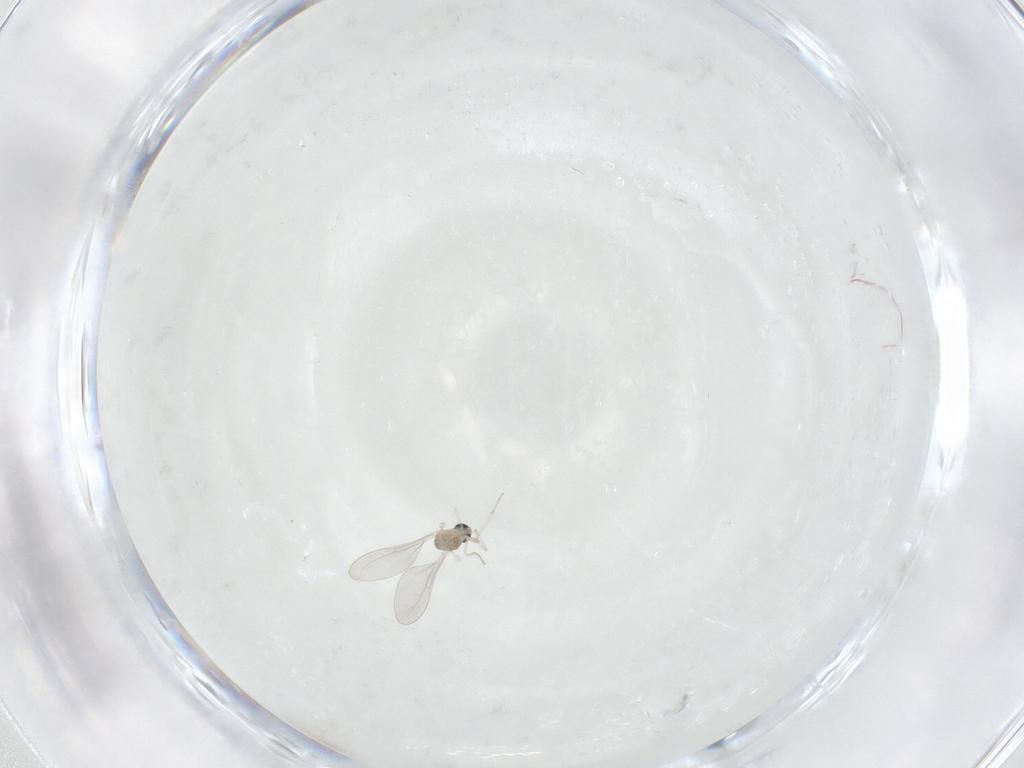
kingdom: Animalia
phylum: Arthropoda
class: Insecta
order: Diptera
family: Cecidomyiidae
